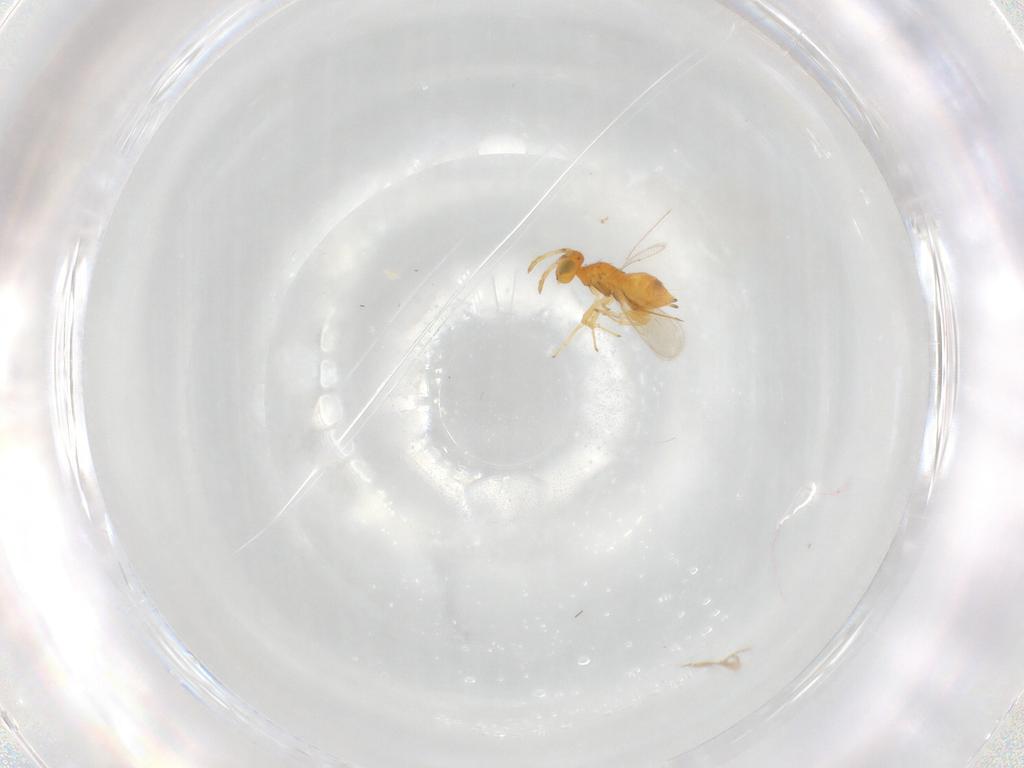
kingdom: Animalia
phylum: Arthropoda
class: Insecta
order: Hymenoptera
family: Aphelinidae
